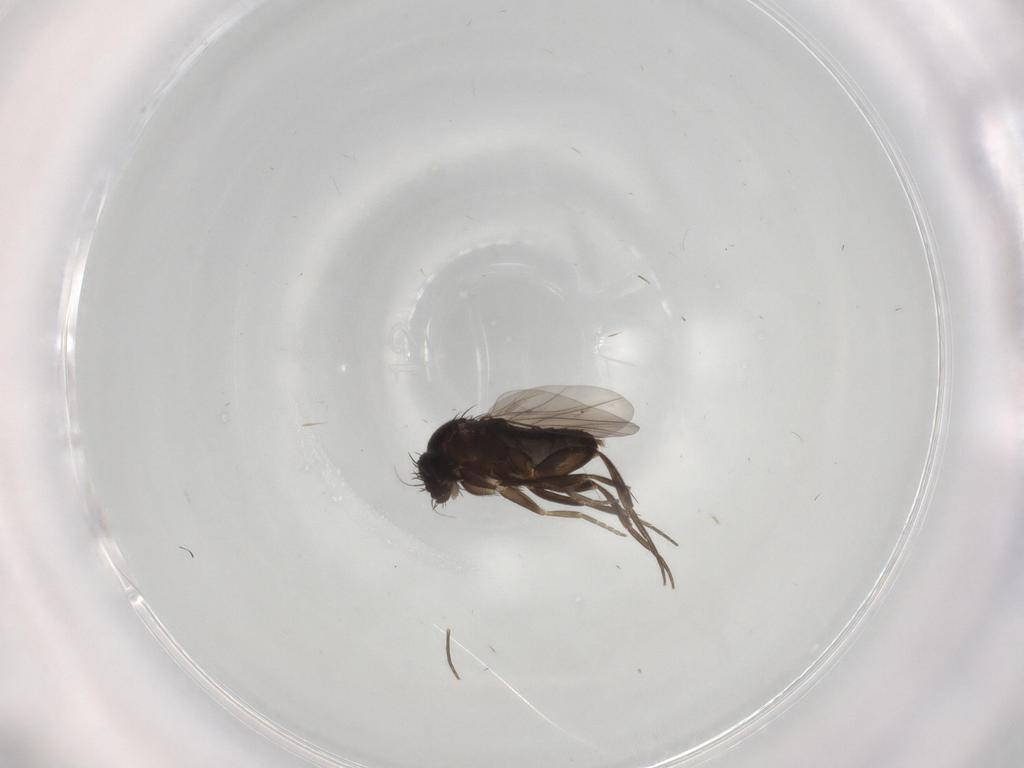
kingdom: Animalia
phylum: Arthropoda
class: Insecta
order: Diptera
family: Phoridae
